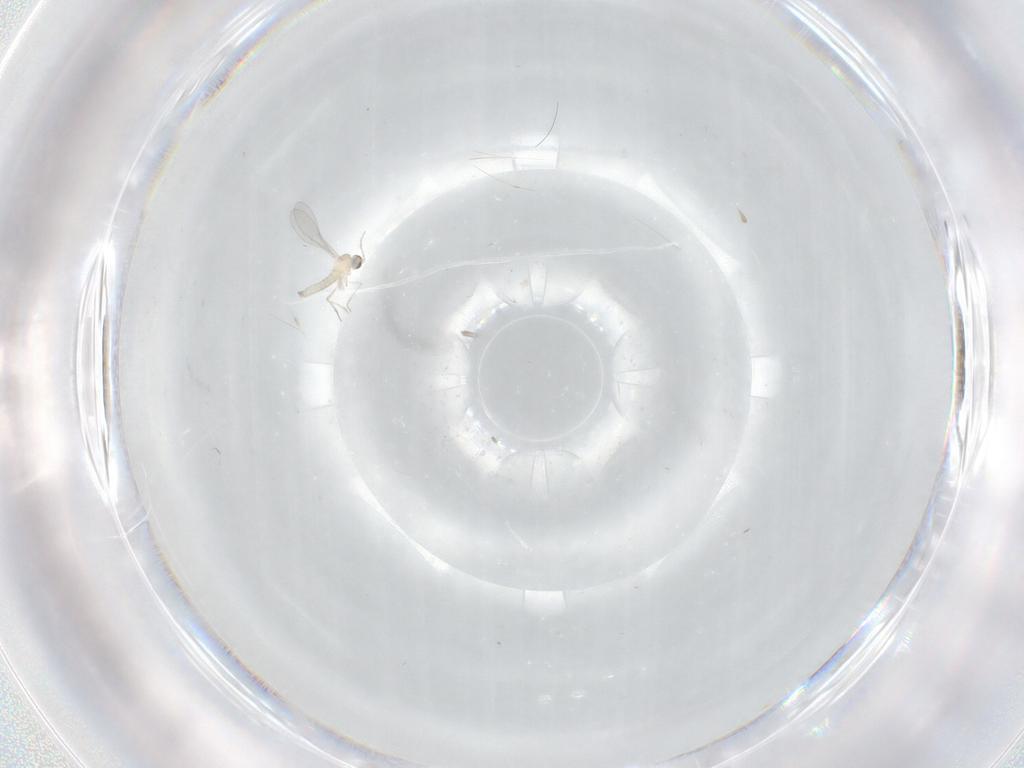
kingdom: Animalia
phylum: Arthropoda
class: Insecta
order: Diptera
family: Cecidomyiidae
